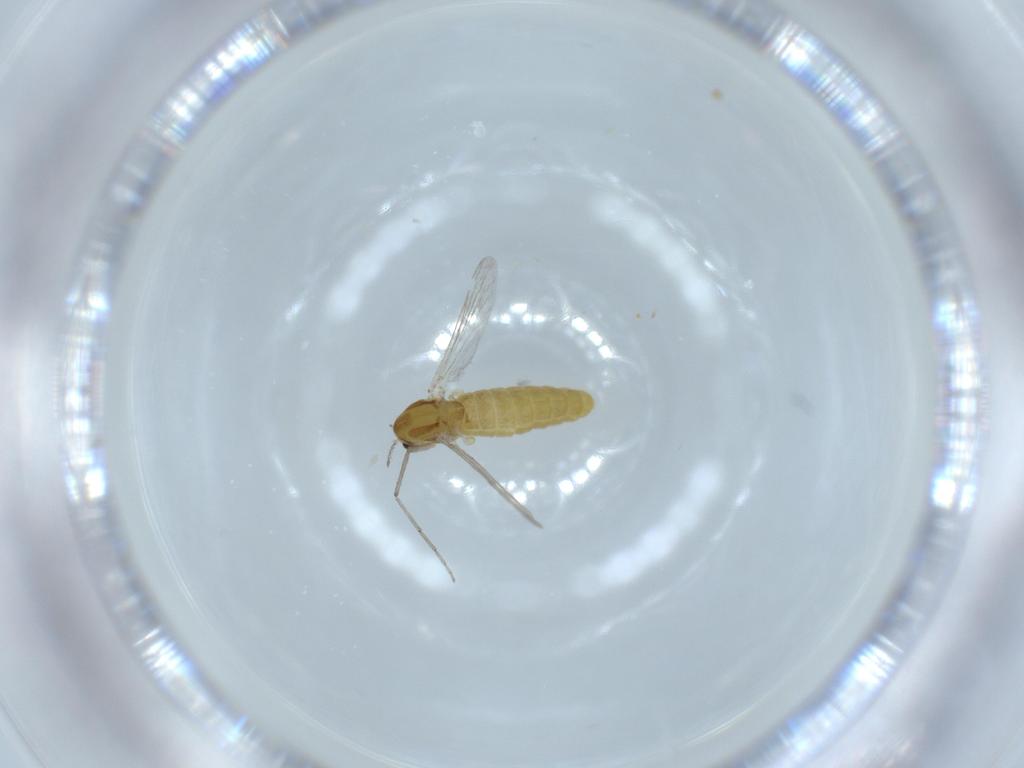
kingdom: Animalia
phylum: Arthropoda
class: Insecta
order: Diptera
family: Chironomidae
